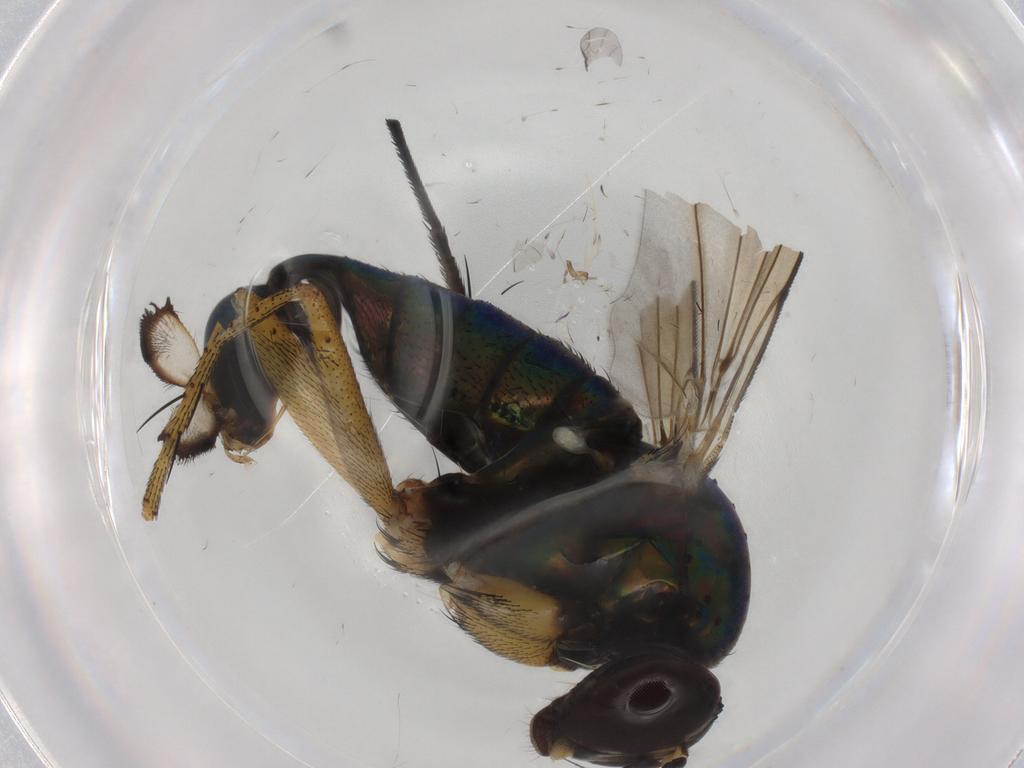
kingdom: Animalia
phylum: Arthropoda
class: Insecta
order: Diptera
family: Dolichopodidae
